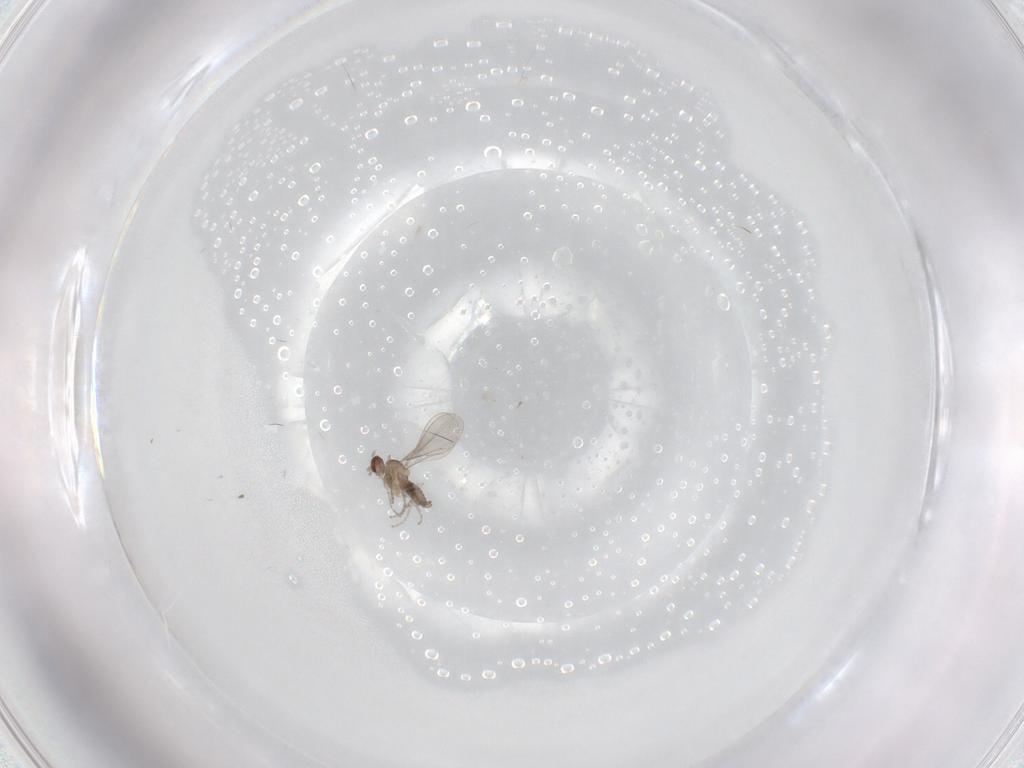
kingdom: Animalia
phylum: Arthropoda
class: Insecta
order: Diptera
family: Cecidomyiidae
